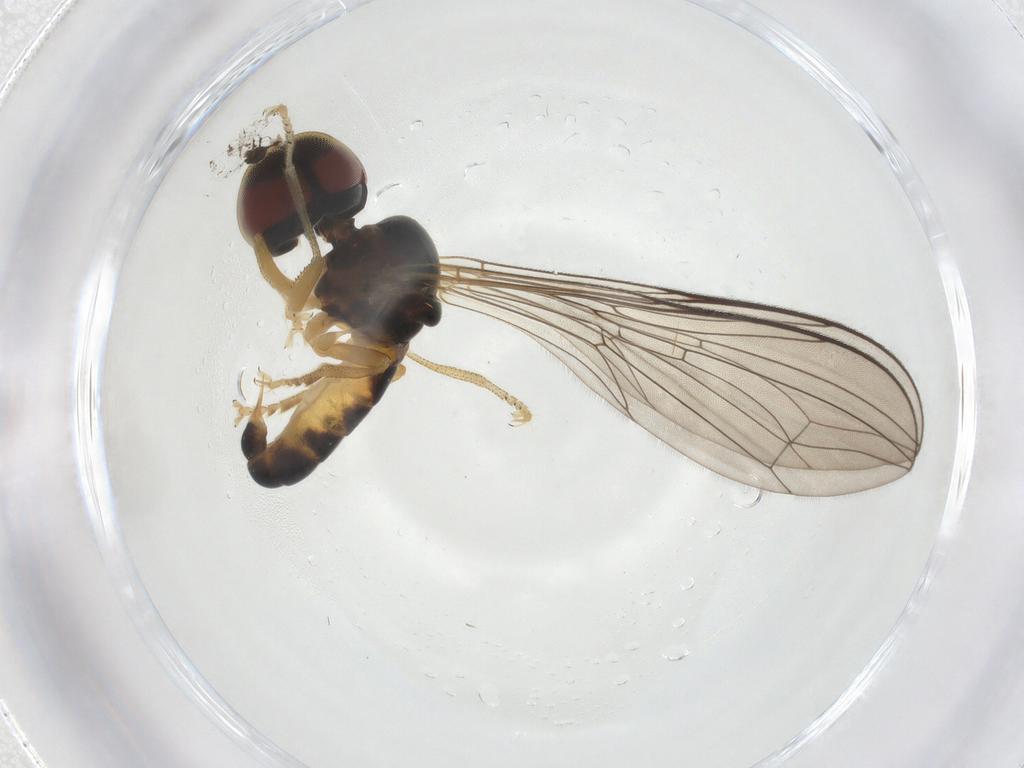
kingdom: Animalia
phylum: Arthropoda
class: Insecta
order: Diptera
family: Pipunculidae
